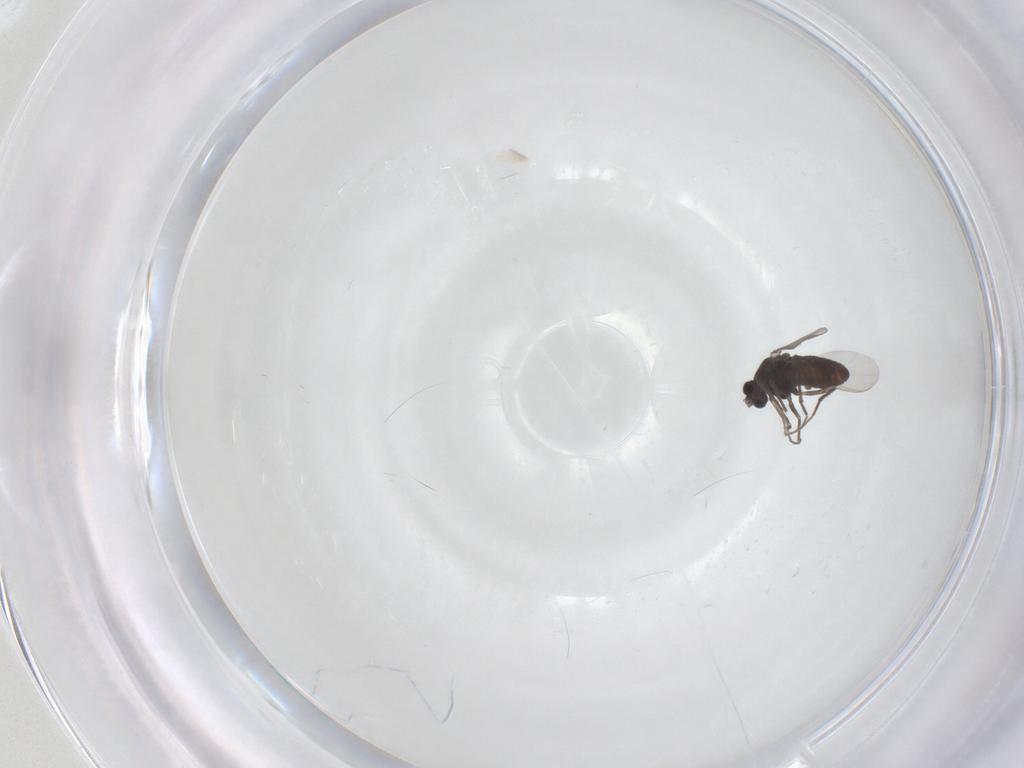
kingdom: Animalia
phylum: Arthropoda
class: Insecta
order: Diptera
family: Chironomidae
